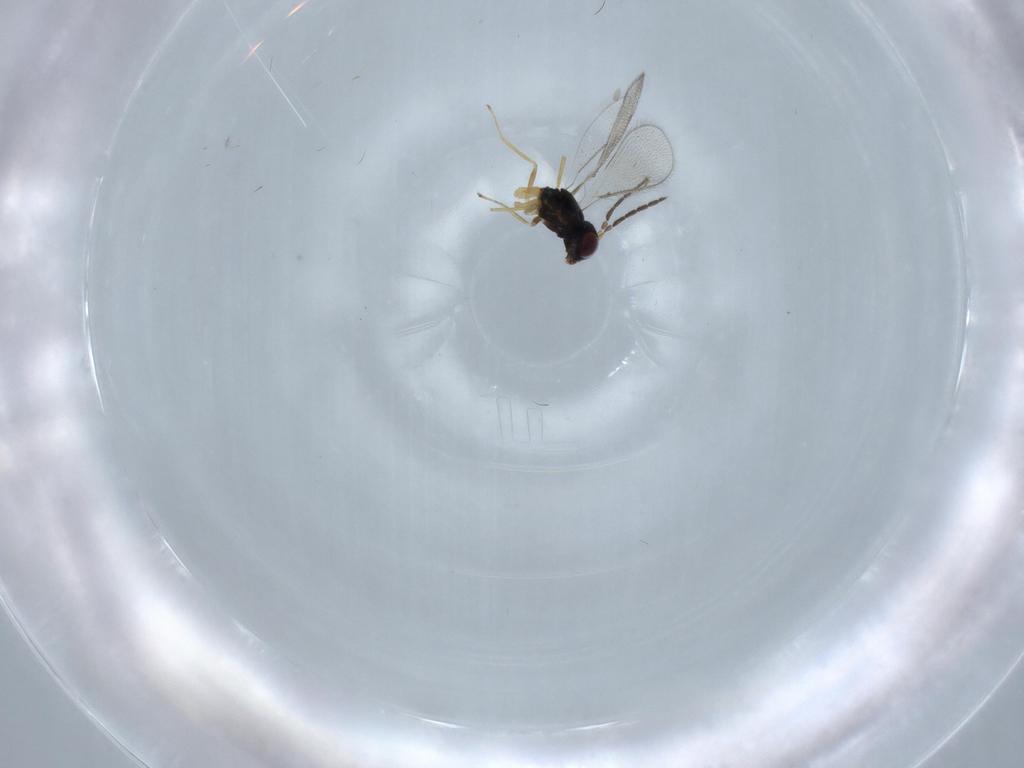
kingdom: Animalia
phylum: Arthropoda
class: Insecta
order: Hymenoptera
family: Eulophidae
